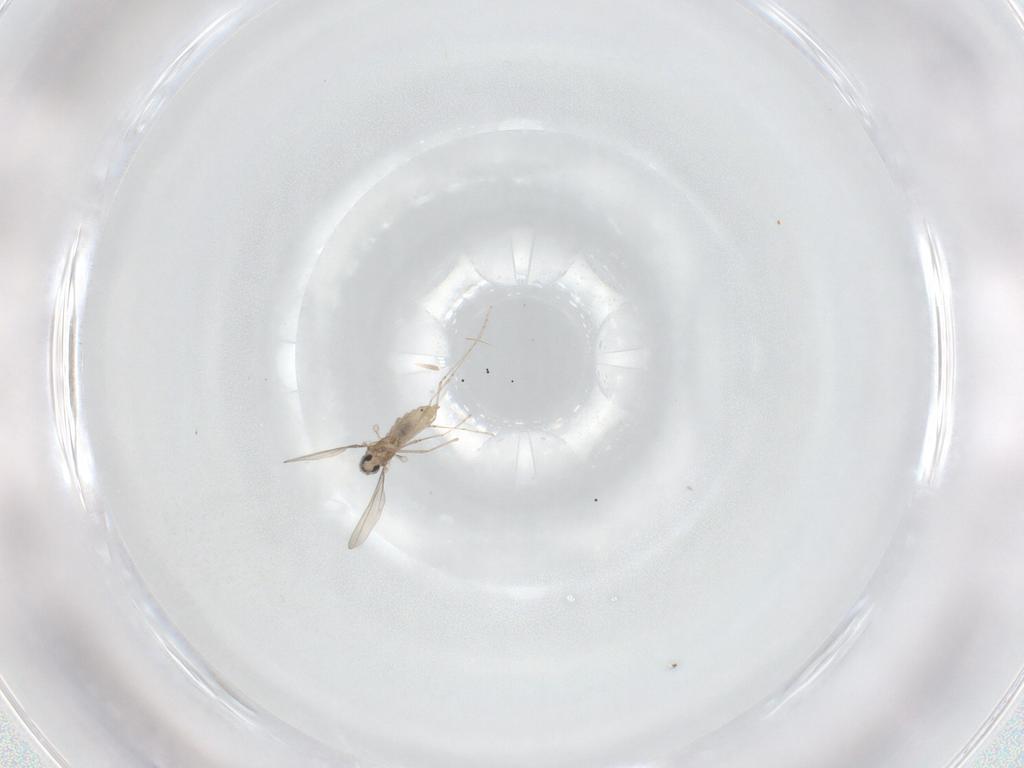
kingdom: Animalia
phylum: Arthropoda
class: Insecta
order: Diptera
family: Cecidomyiidae
